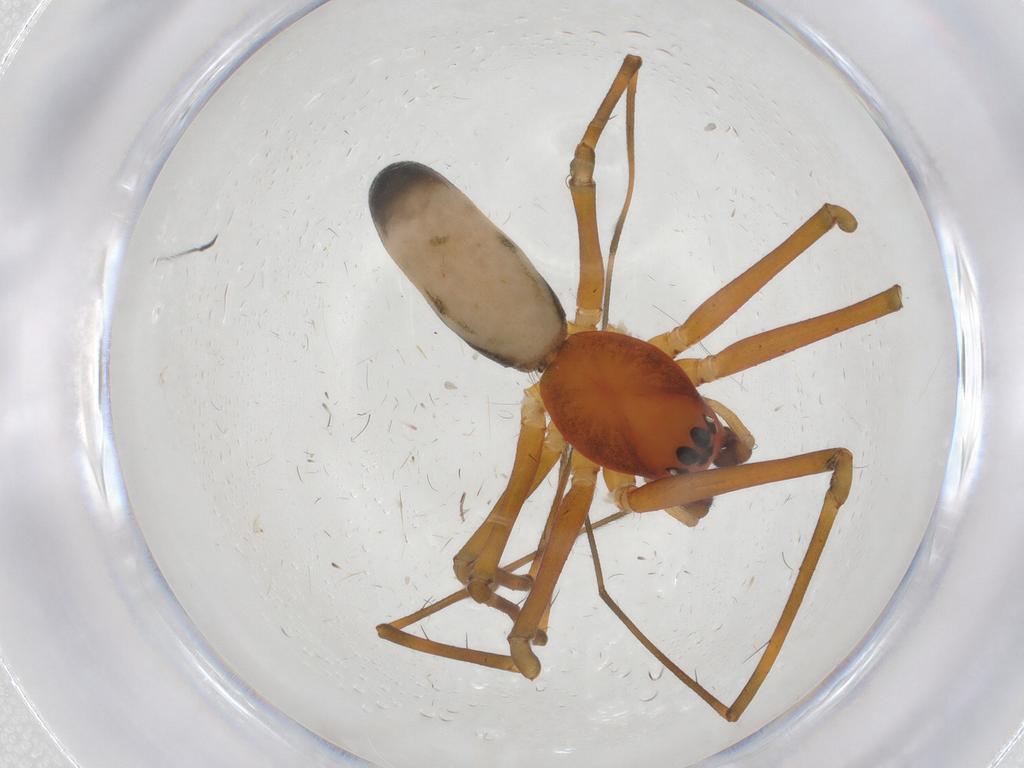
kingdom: Animalia
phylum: Arthropoda
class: Arachnida
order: Araneae
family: Linyphiidae
